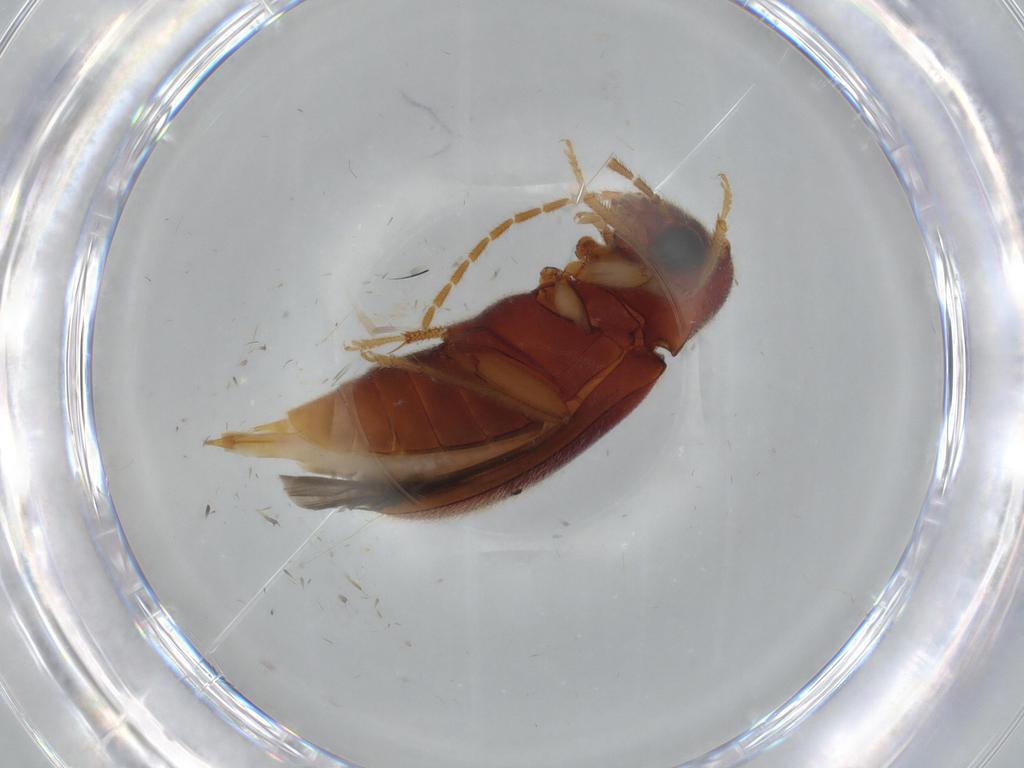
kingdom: Animalia
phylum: Arthropoda
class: Insecta
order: Coleoptera
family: Ptilodactylidae
